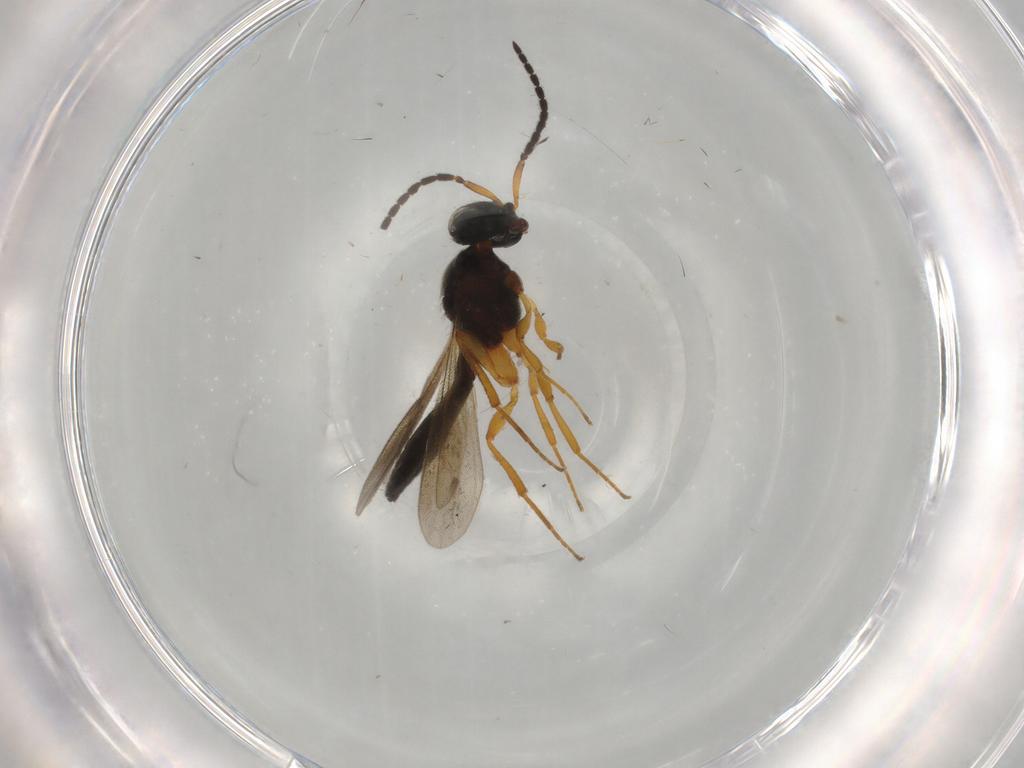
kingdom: Animalia
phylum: Arthropoda
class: Insecta
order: Hymenoptera
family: Scelionidae
